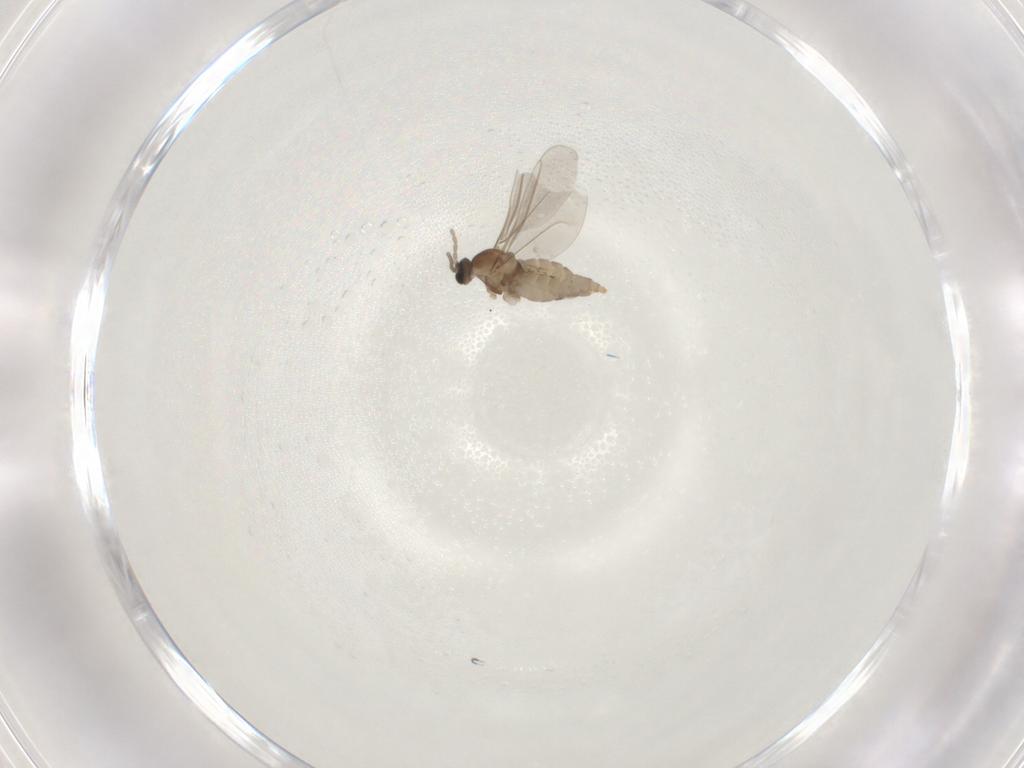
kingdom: Animalia
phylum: Arthropoda
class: Insecta
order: Diptera
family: Cecidomyiidae
